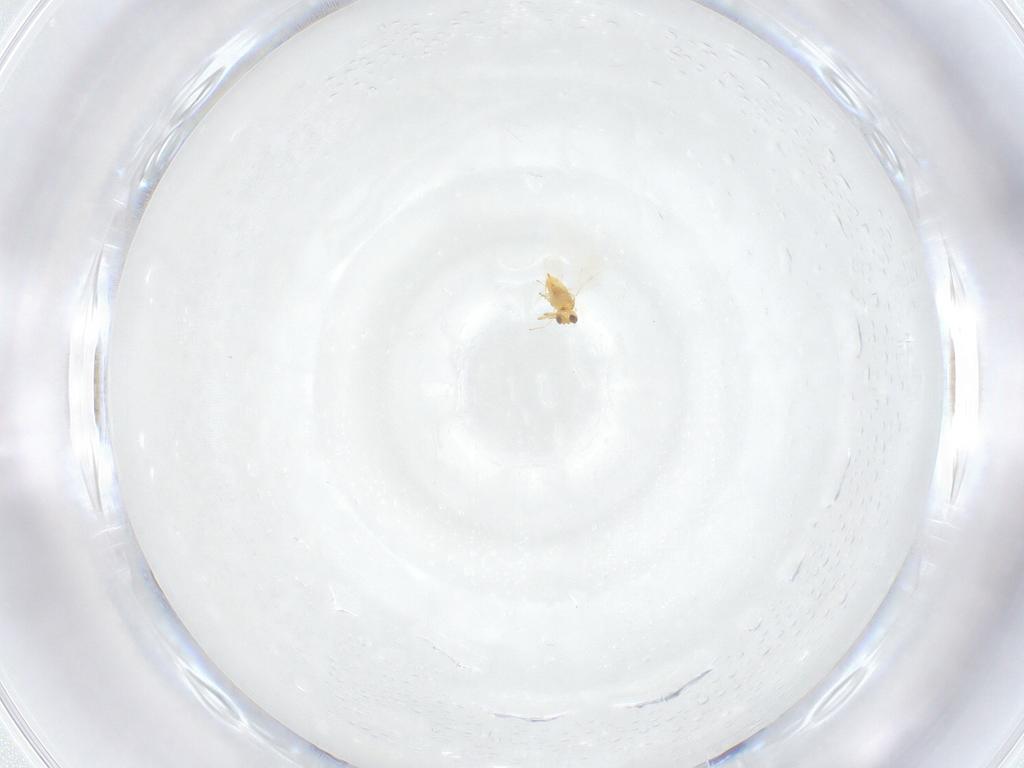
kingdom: Animalia
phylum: Arthropoda
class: Insecta
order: Hymenoptera
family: Aphelinidae
